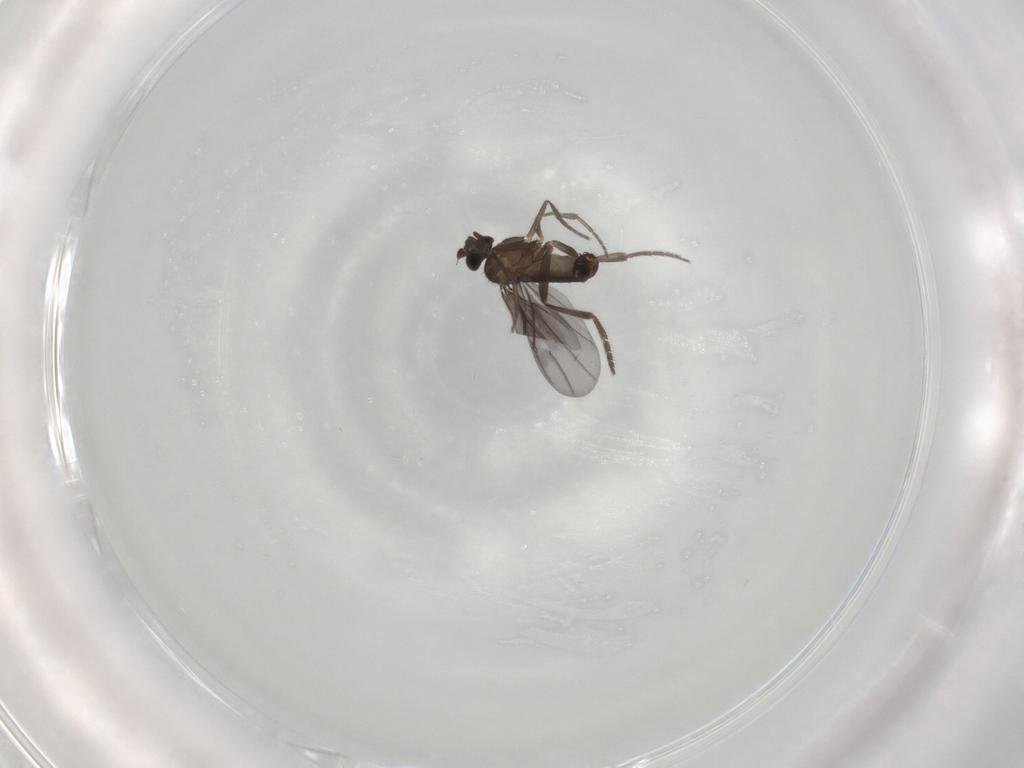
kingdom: Animalia
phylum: Arthropoda
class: Insecta
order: Diptera
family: Phoridae
